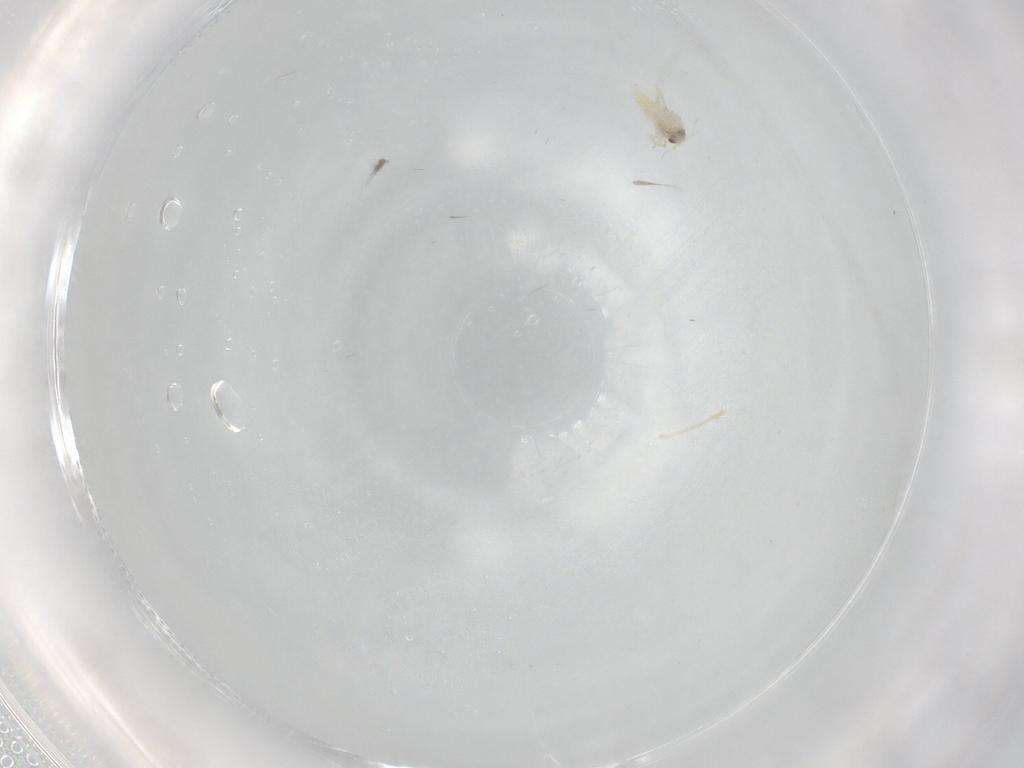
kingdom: Animalia
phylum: Arthropoda
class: Insecta
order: Hemiptera
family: Aleyrodidae
